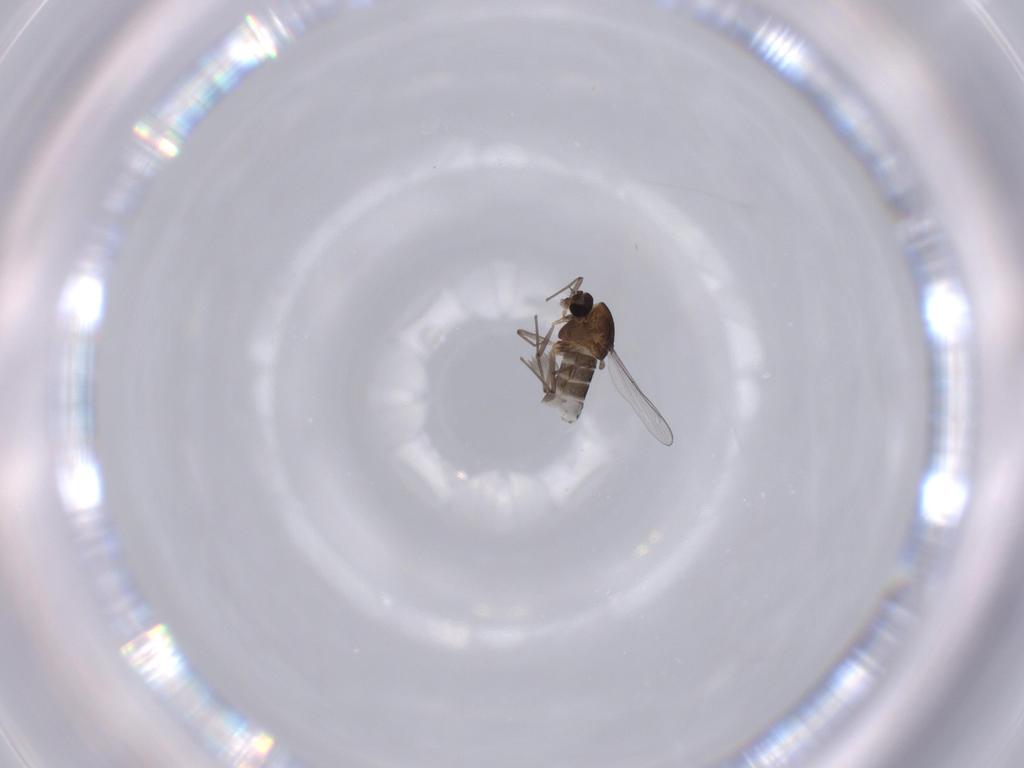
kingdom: Animalia
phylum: Arthropoda
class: Insecta
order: Diptera
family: Chironomidae
